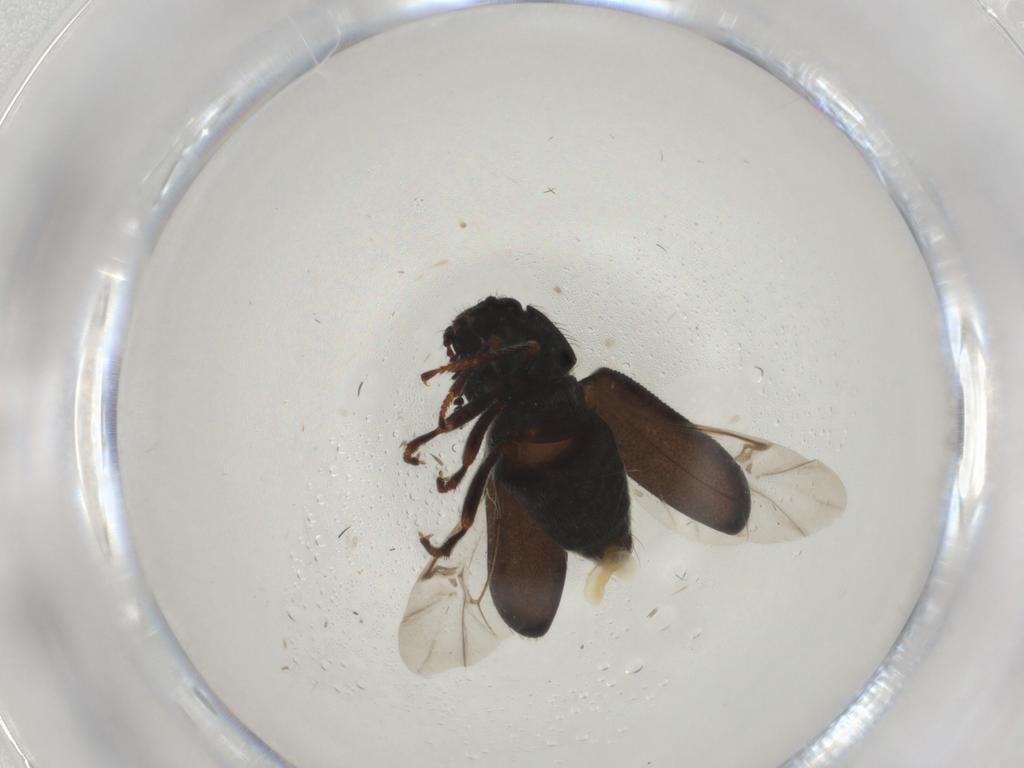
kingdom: Animalia
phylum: Arthropoda
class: Insecta
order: Coleoptera
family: Melyridae
